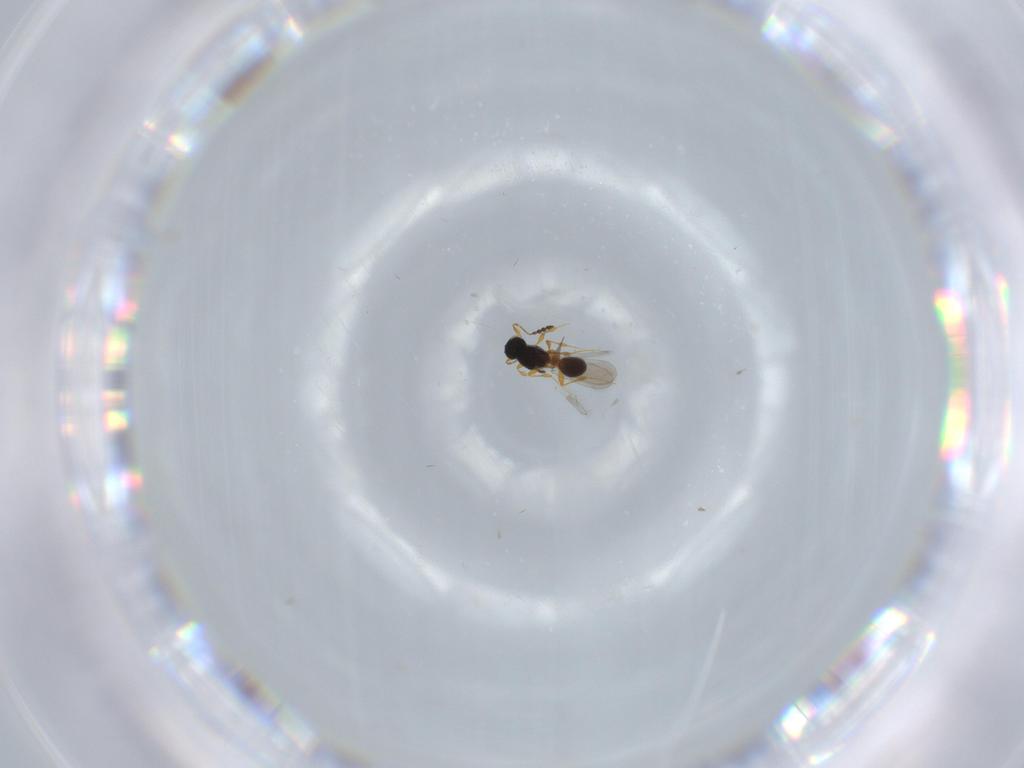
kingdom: Animalia
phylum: Arthropoda
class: Insecta
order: Hymenoptera
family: Platygastridae
